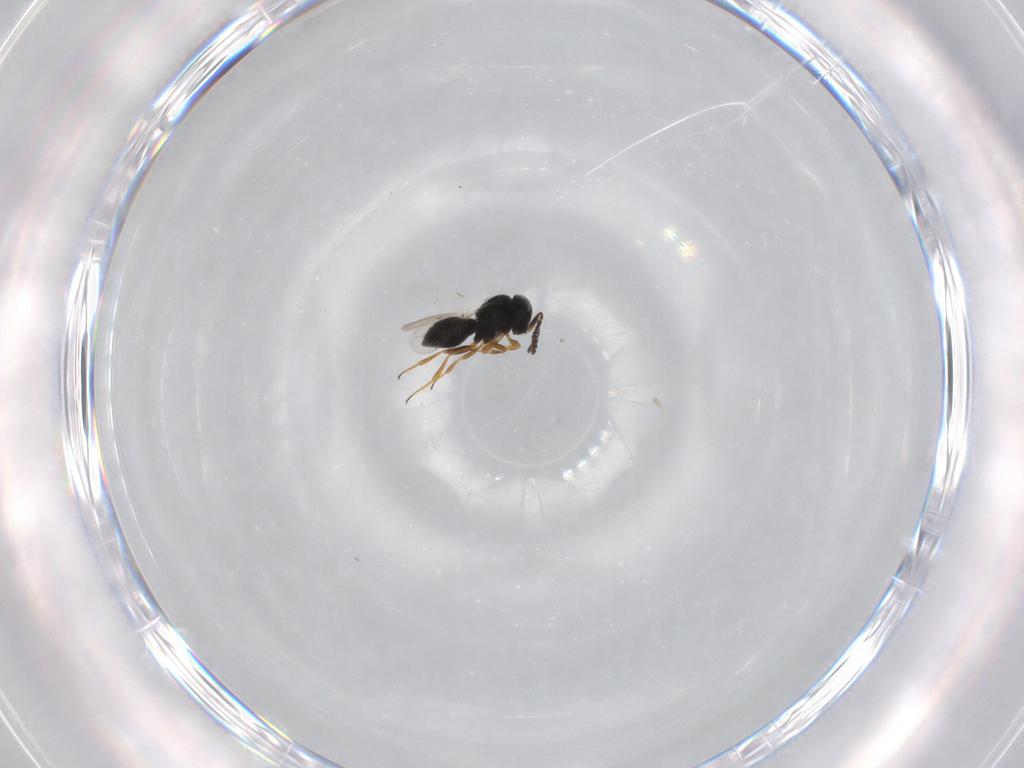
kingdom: Animalia
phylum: Arthropoda
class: Insecta
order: Hymenoptera
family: Scelionidae
